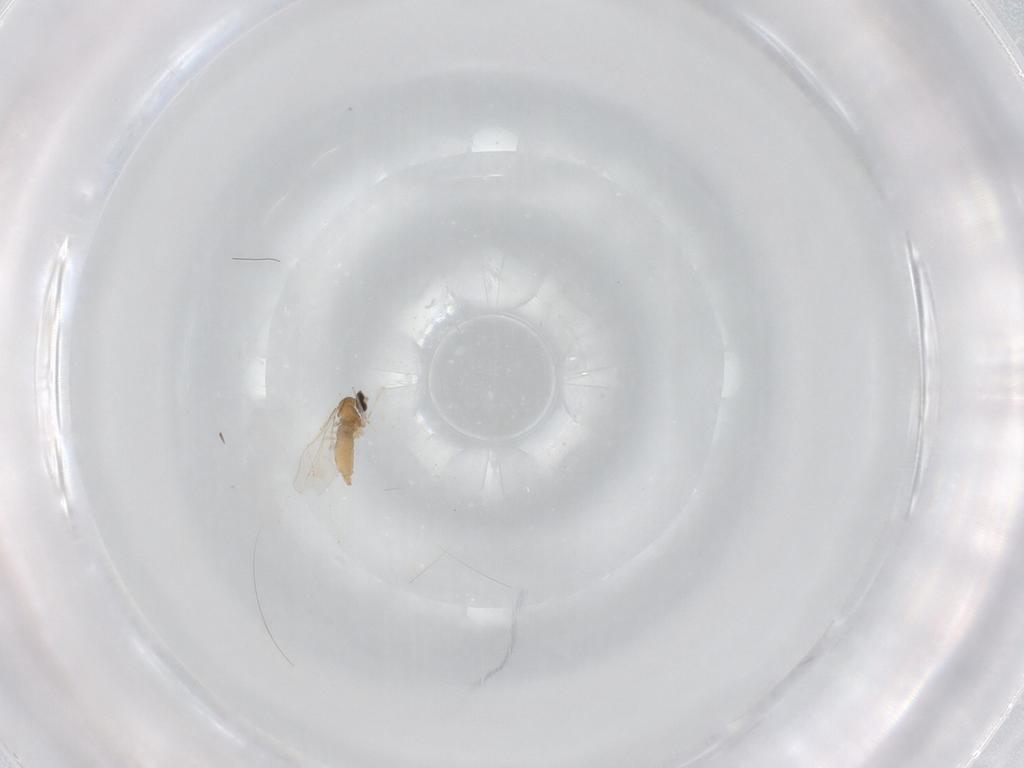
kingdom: Animalia
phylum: Arthropoda
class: Insecta
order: Diptera
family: Cecidomyiidae
